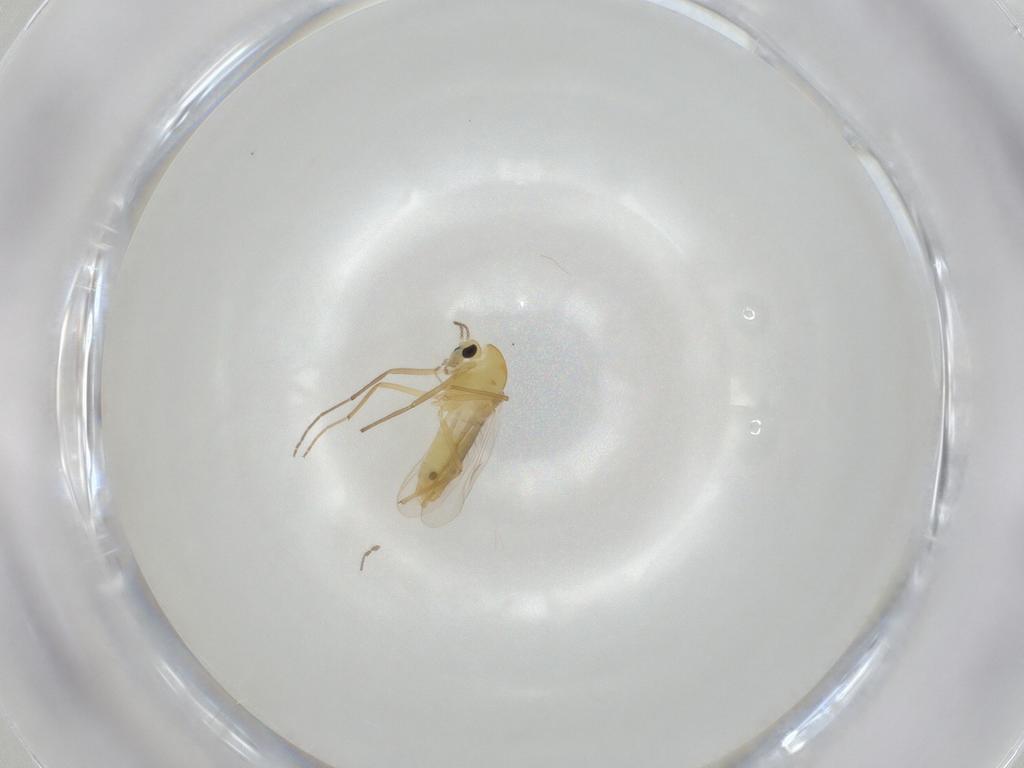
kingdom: Animalia
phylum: Arthropoda
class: Insecta
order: Diptera
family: Chironomidae
